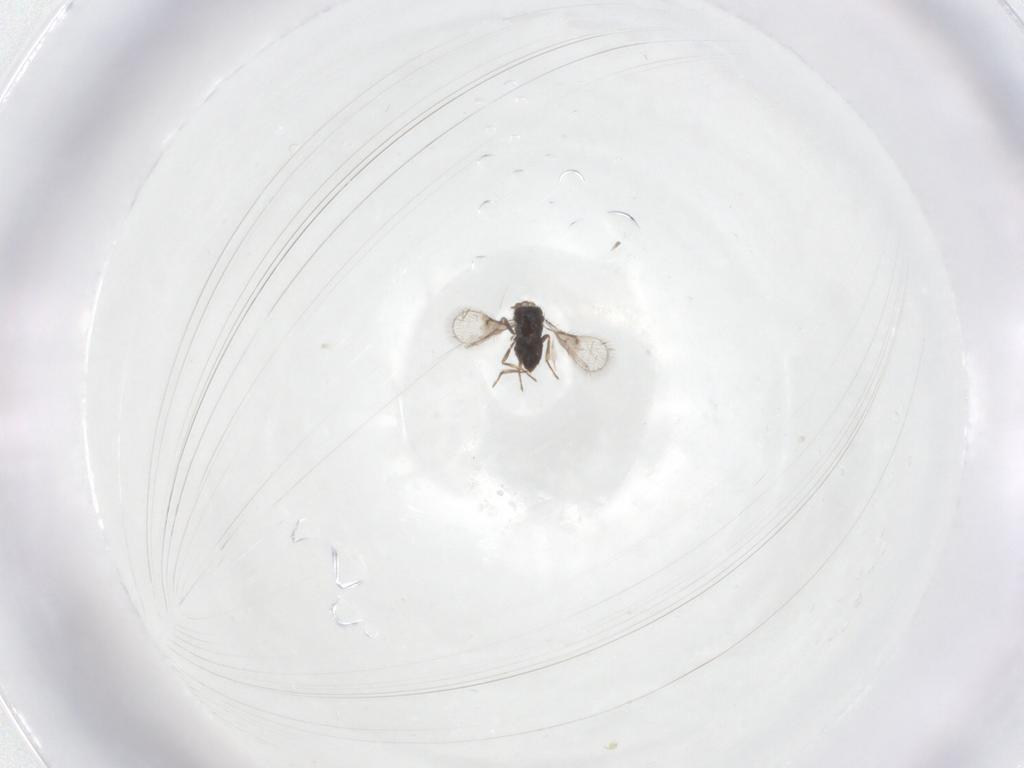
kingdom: Animalia
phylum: Arthropoda
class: Insecta
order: Hymenoptera
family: Trichogrammatidae
